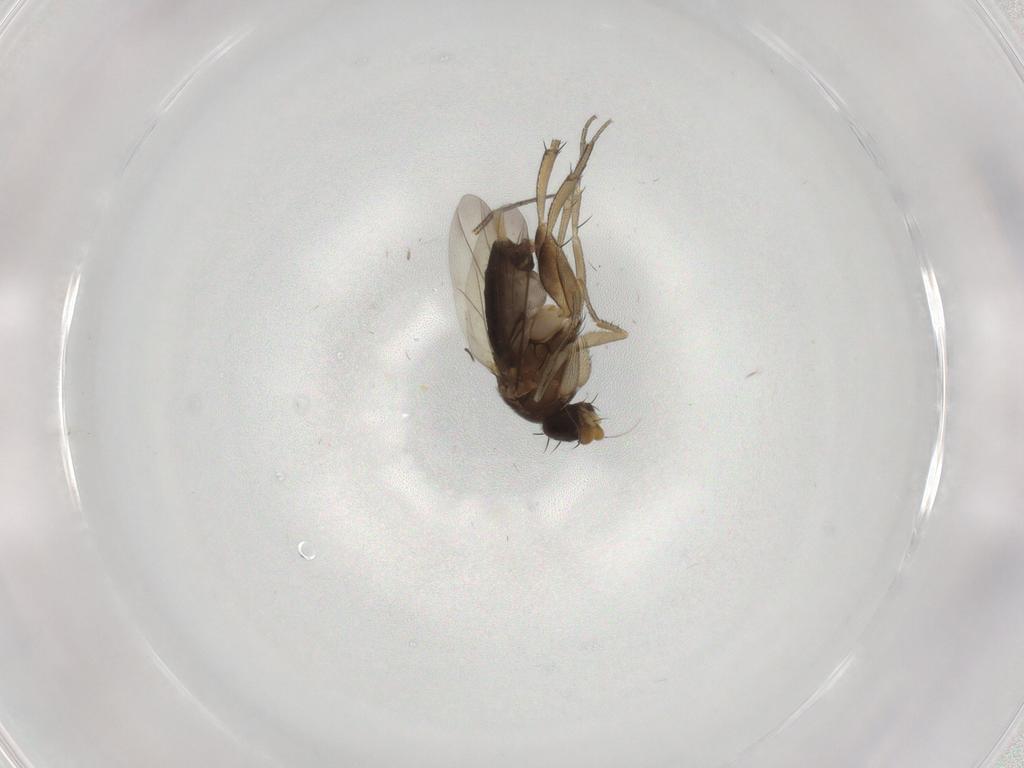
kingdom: Animalia
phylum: Arthropoda
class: Insecta
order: Diptera
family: Phoridae
